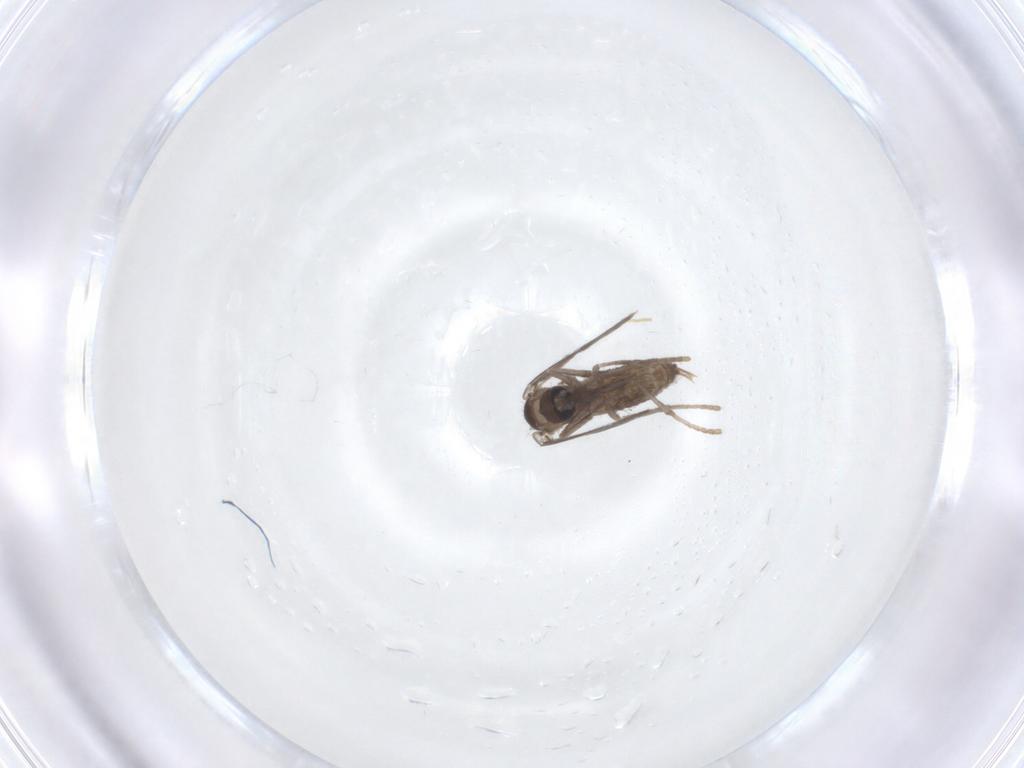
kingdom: Animalia
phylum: Arthropoda
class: Insecta
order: Diptera
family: Psychodidae
